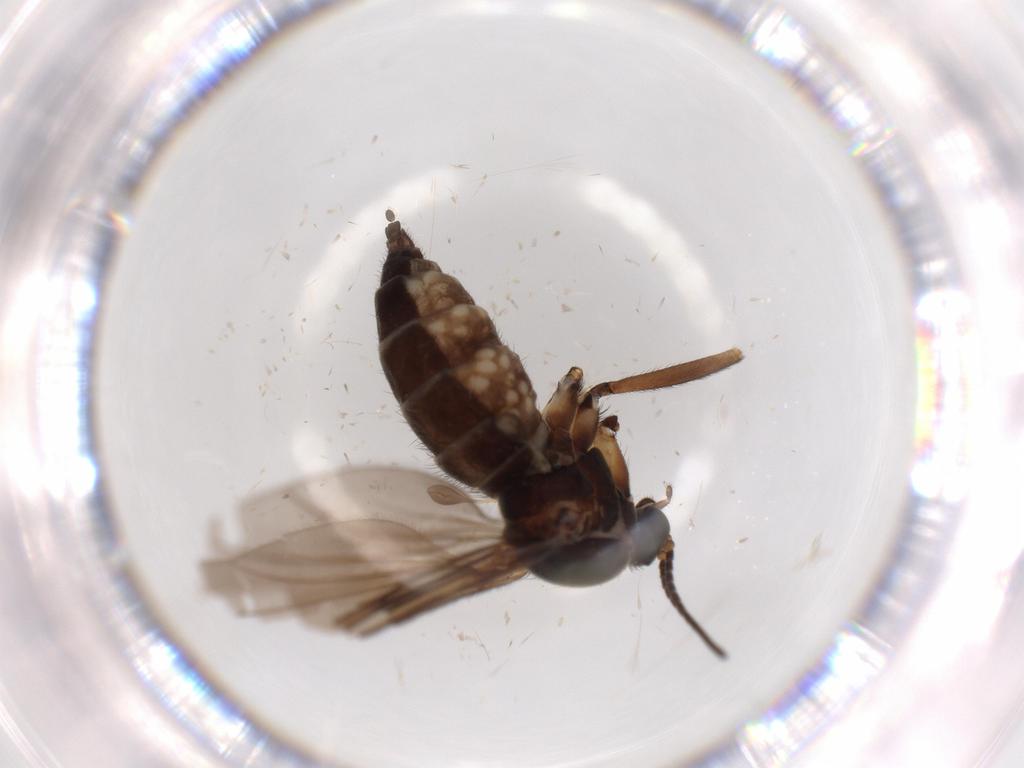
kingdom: Animalia
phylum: Arthropoda
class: Insecta
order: Diptera
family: Sciaridae
